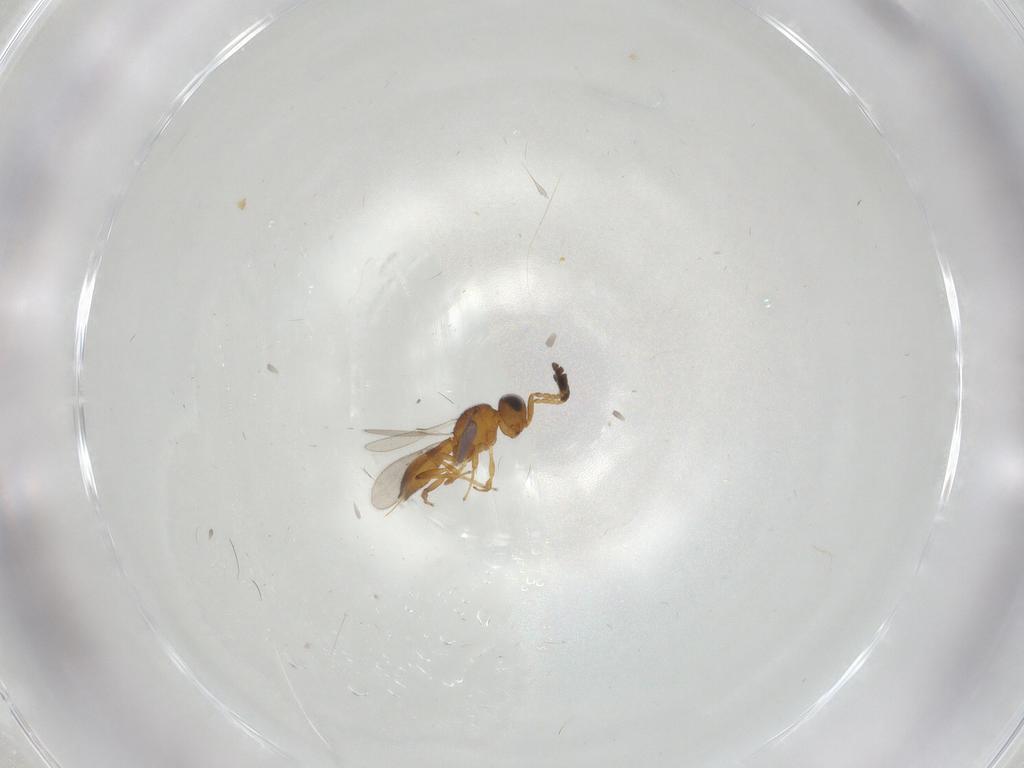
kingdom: Animalia
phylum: Arthropoda
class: Insecta
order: Hymenoptera
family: Scelionidae
